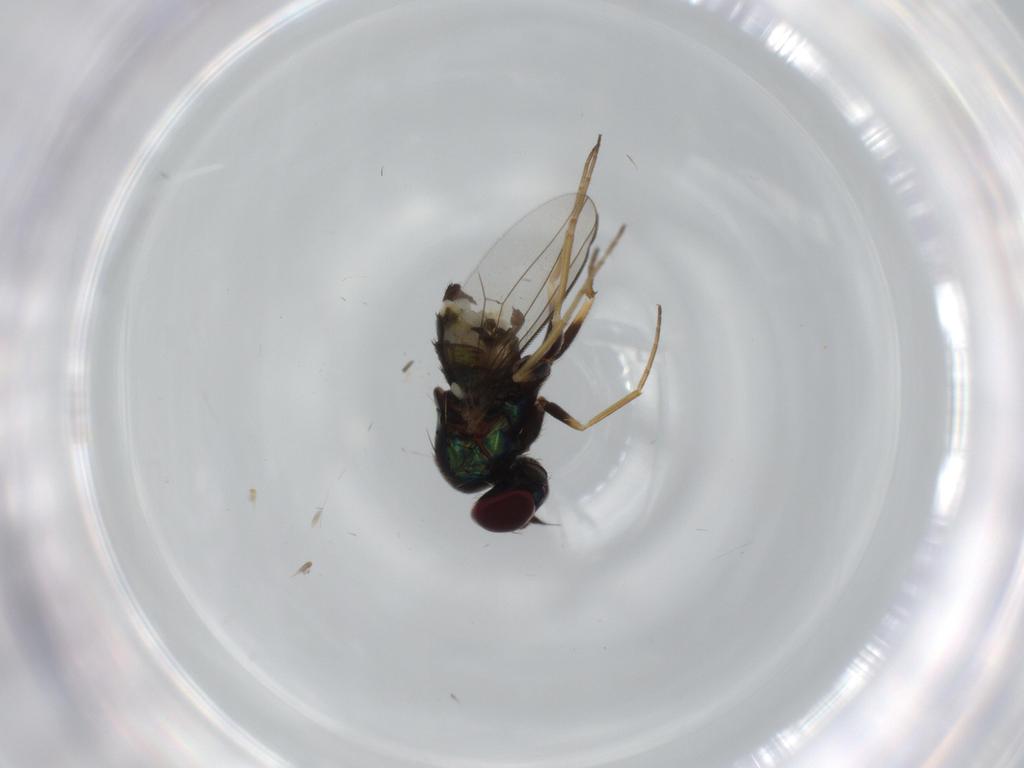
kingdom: Animalia
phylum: Arthropoda
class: Insecta
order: Diptera
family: Dolichopodidae
